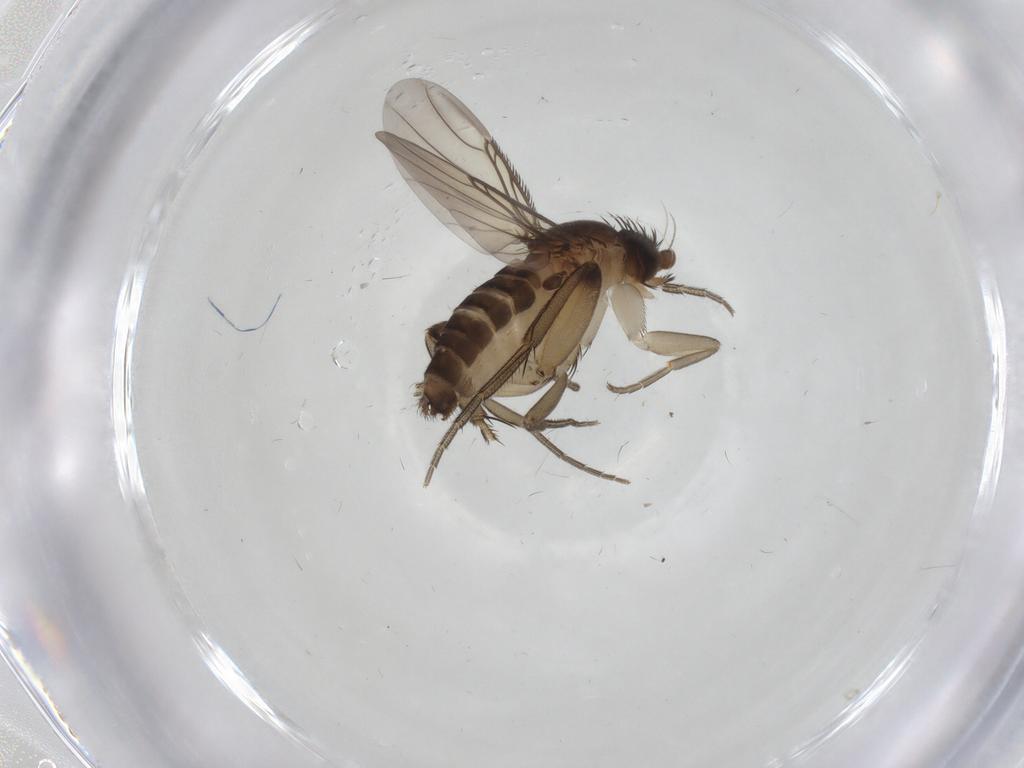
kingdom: Animalia
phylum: Arthropoda
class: Insecta
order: Diptera
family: Phoridae
